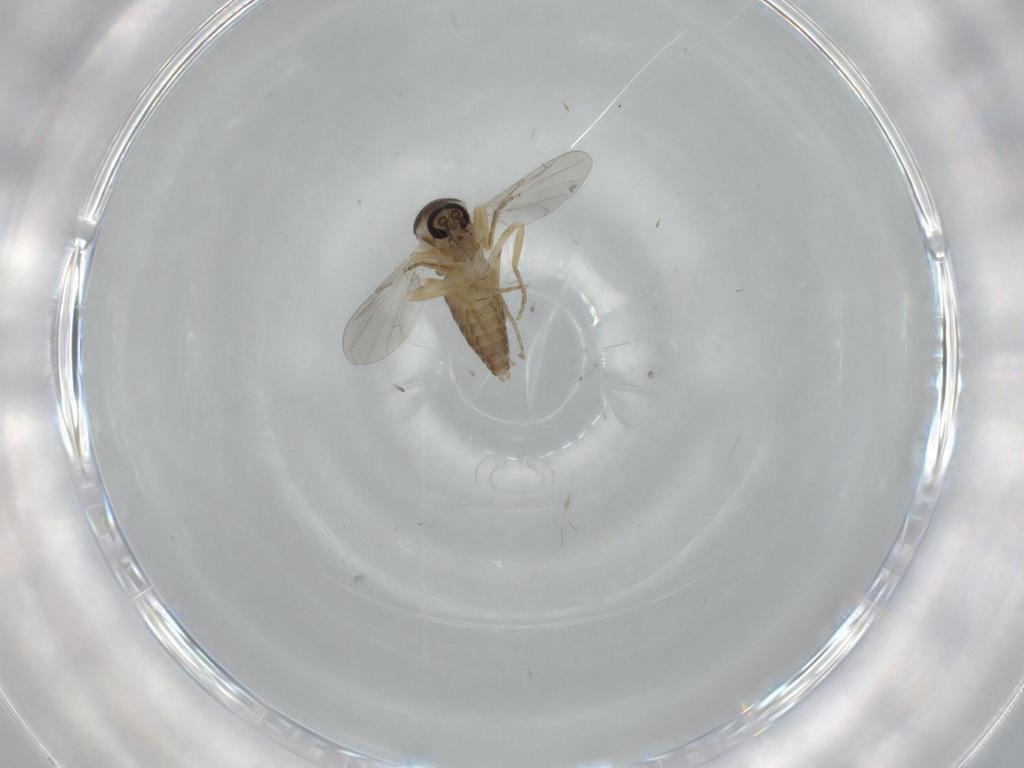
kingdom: Animalia
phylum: Arthropoda
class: Insecta
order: Diptera
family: Ceratopogonidae
